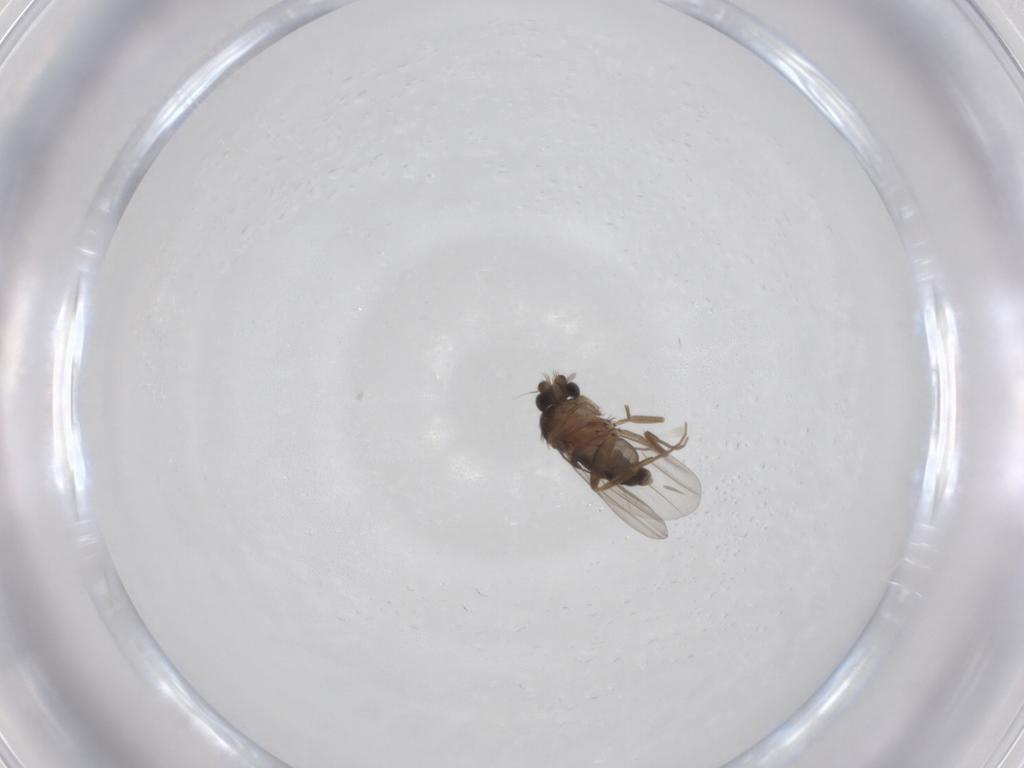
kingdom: Animalia
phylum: Arthropoda
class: Insecta
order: Diptera
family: Phoridae
